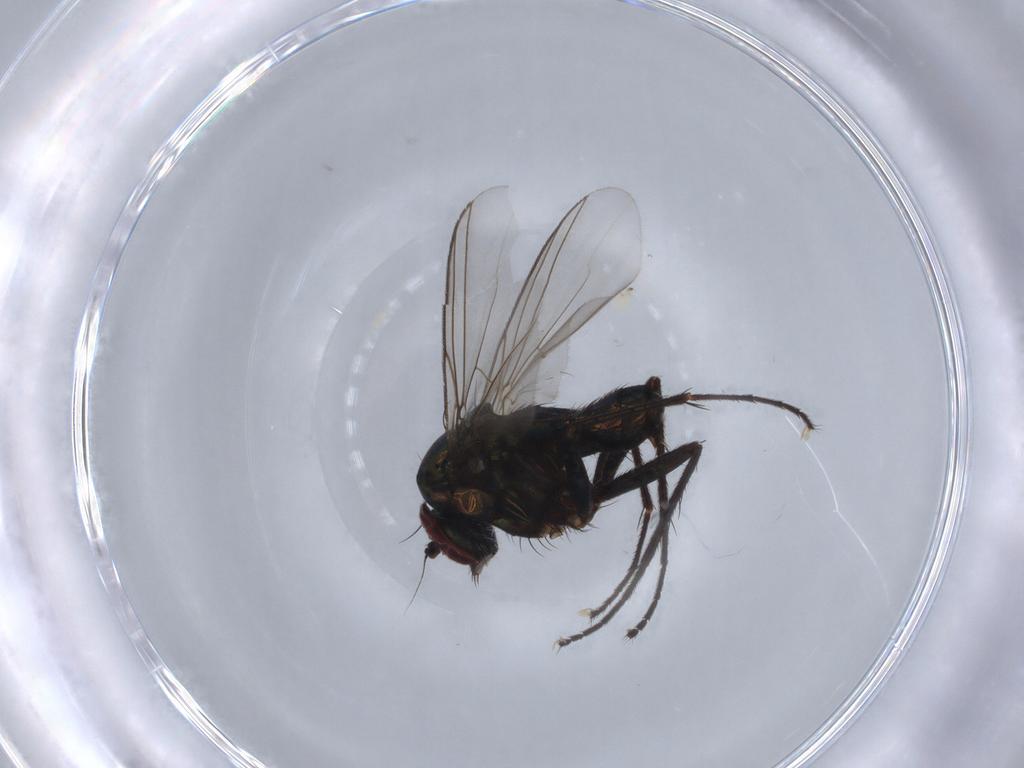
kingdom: Animalia
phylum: Arthropoda
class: Insecta
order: Diptera
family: Dolichopodidae
